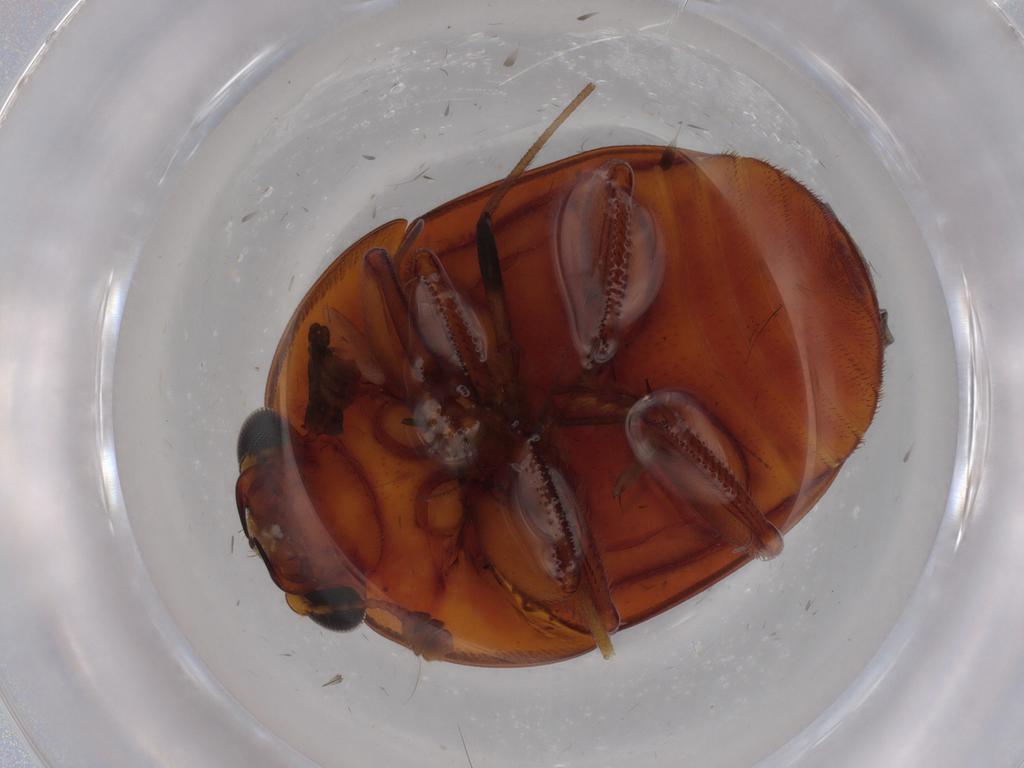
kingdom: Animalia
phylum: Arthropoda
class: Insecta
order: Coleoptera
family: Nitidulidae
